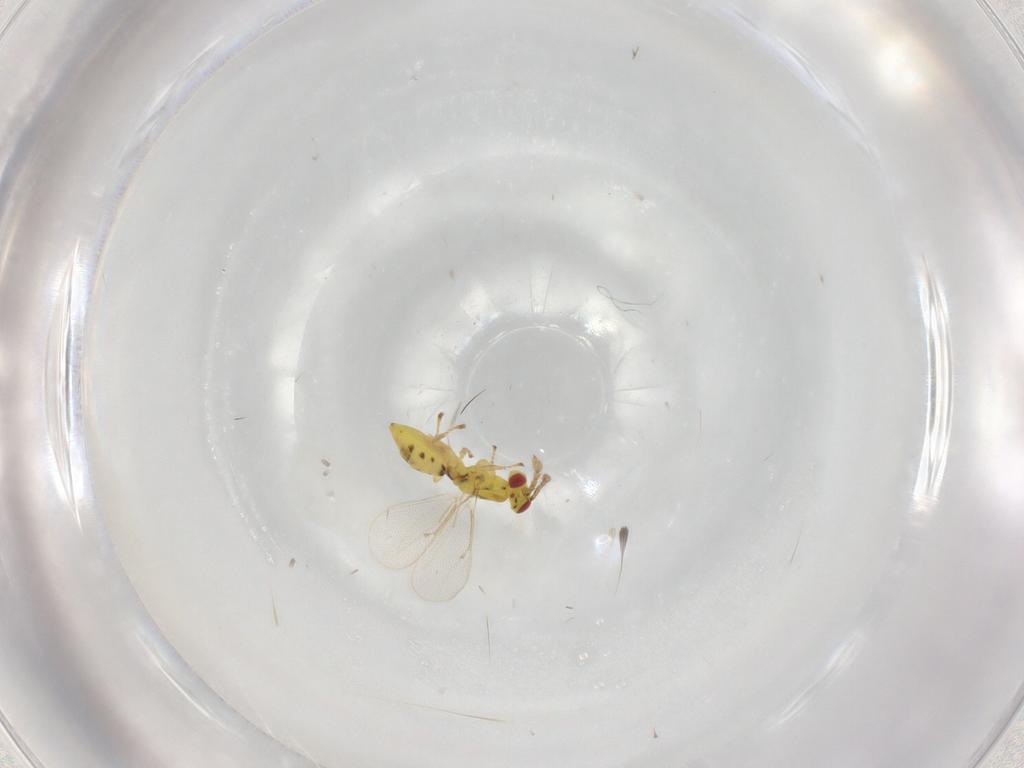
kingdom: Animalia
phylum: Arthropoda
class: Insecta
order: Hymenoptera
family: Eulophidae
